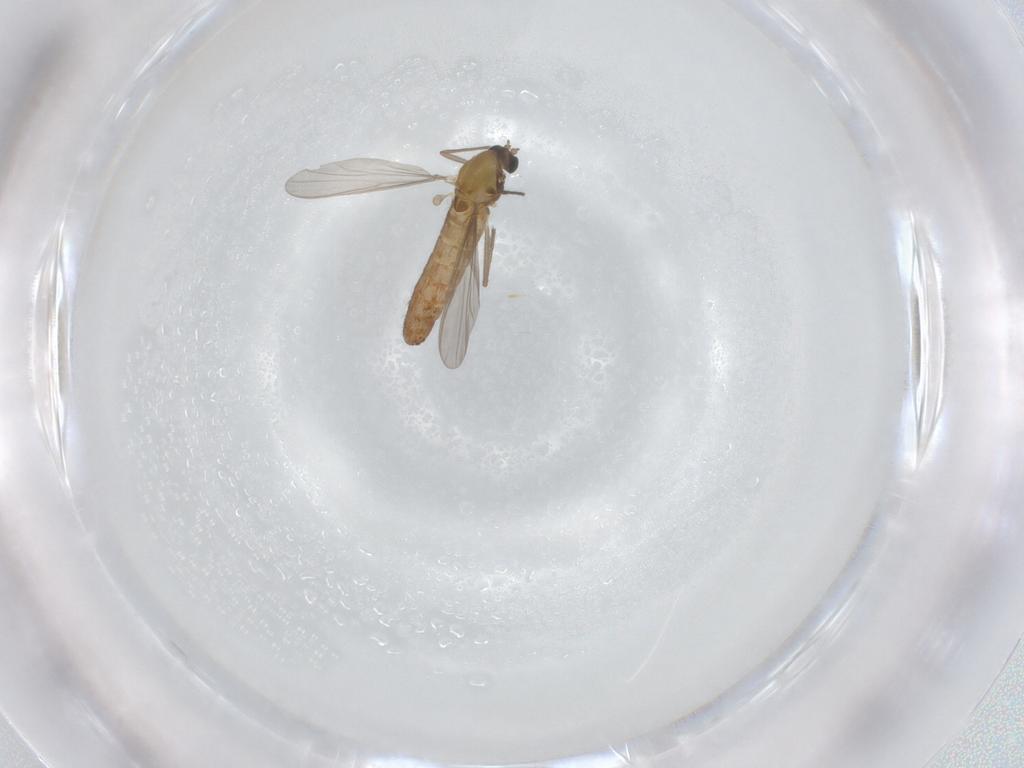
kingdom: Animalia
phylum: Arthropoda
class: Insecta
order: Diptera
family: Chironomidae
